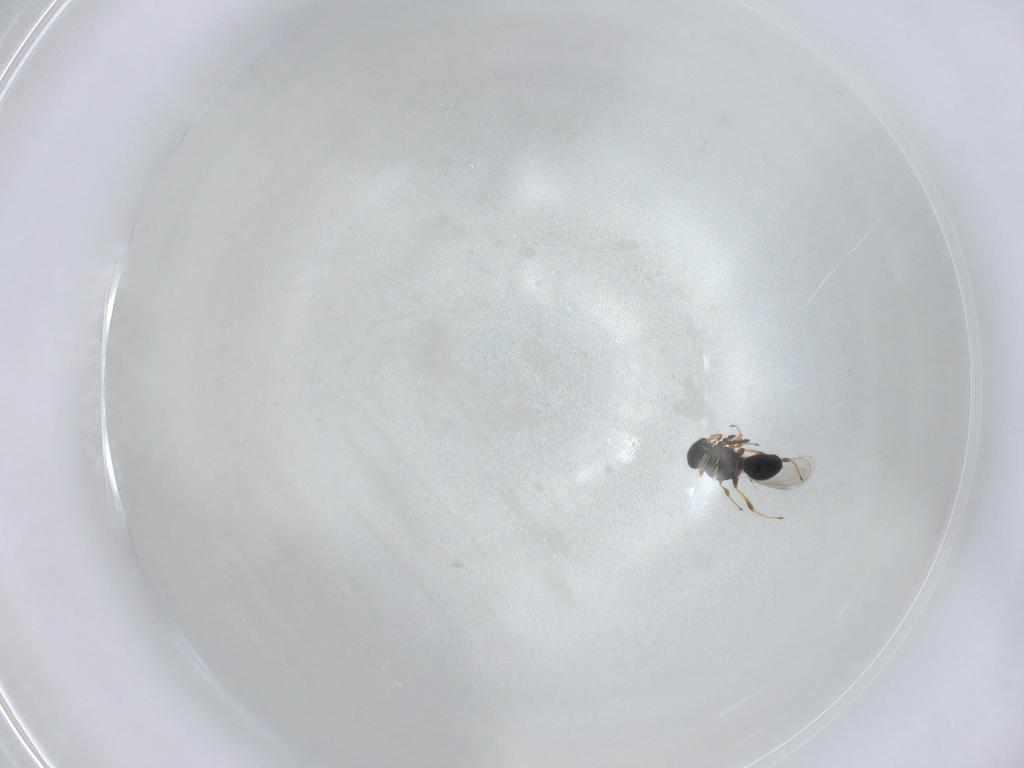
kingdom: Animalia
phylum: Arthropoda
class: Insecta
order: Hymenoptera
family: Platygastridae
